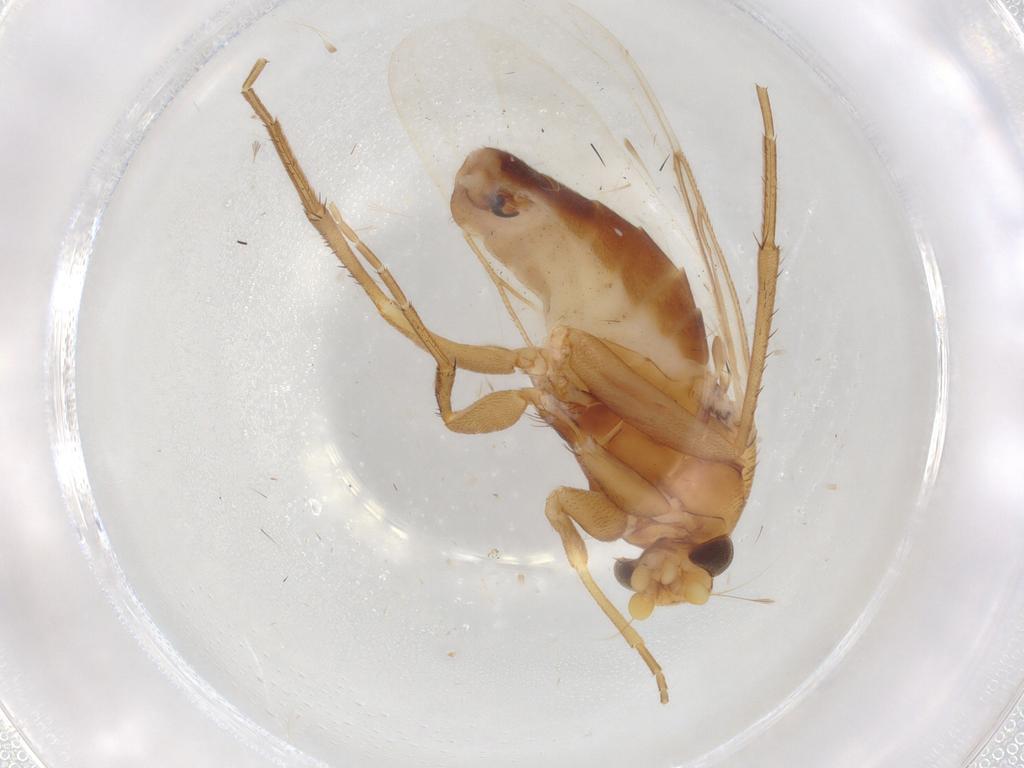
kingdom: Animalia
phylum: Arthropoda
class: Insecta
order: Diptera
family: Phoridae
